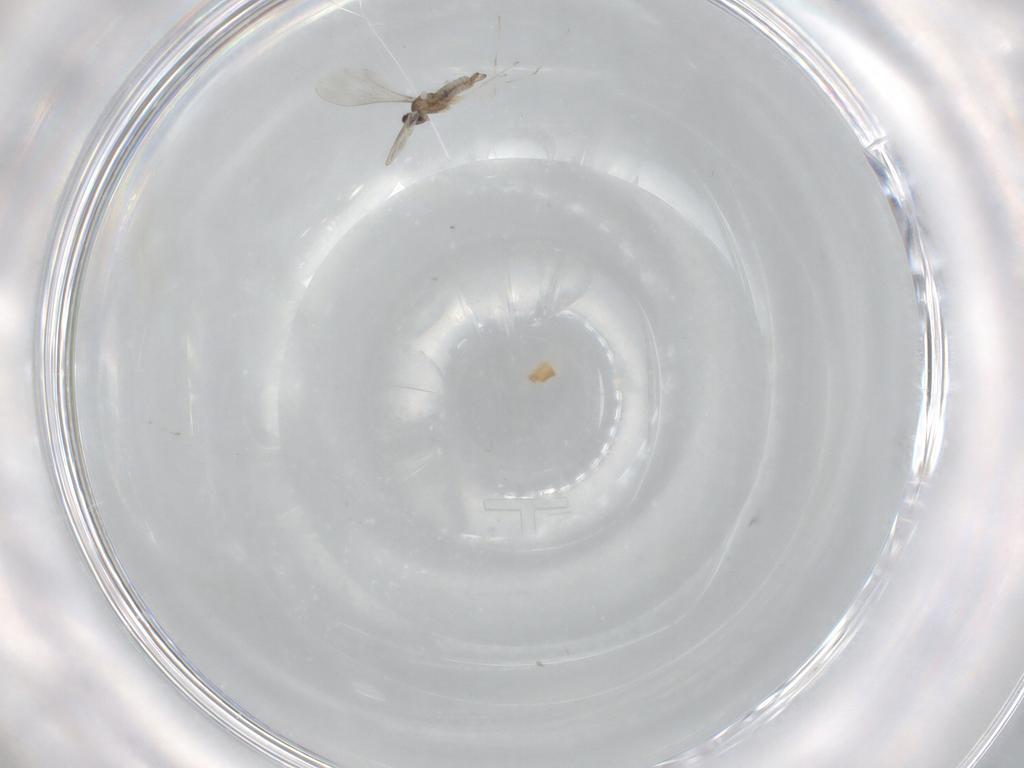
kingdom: Animalia
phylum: Arthropoda
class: Insecta
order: Diptera
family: Cecidomyiidae
